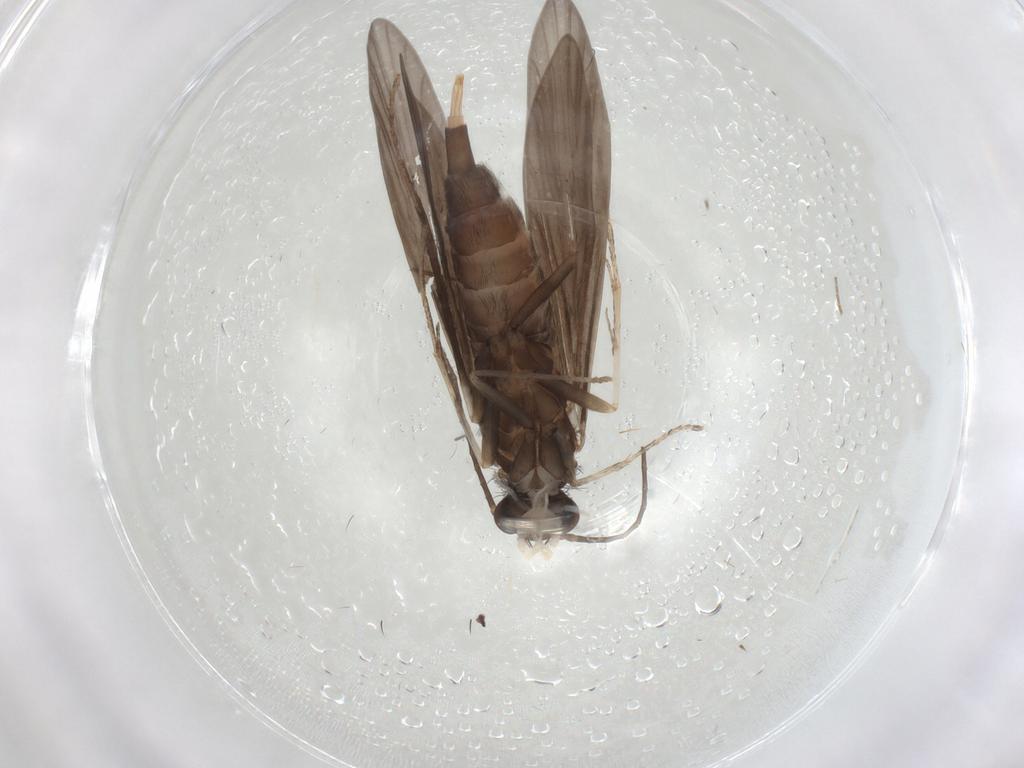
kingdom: Animalia
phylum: Arthropoda
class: Insecta
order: Trichoptera
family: Xiphocentronidae
